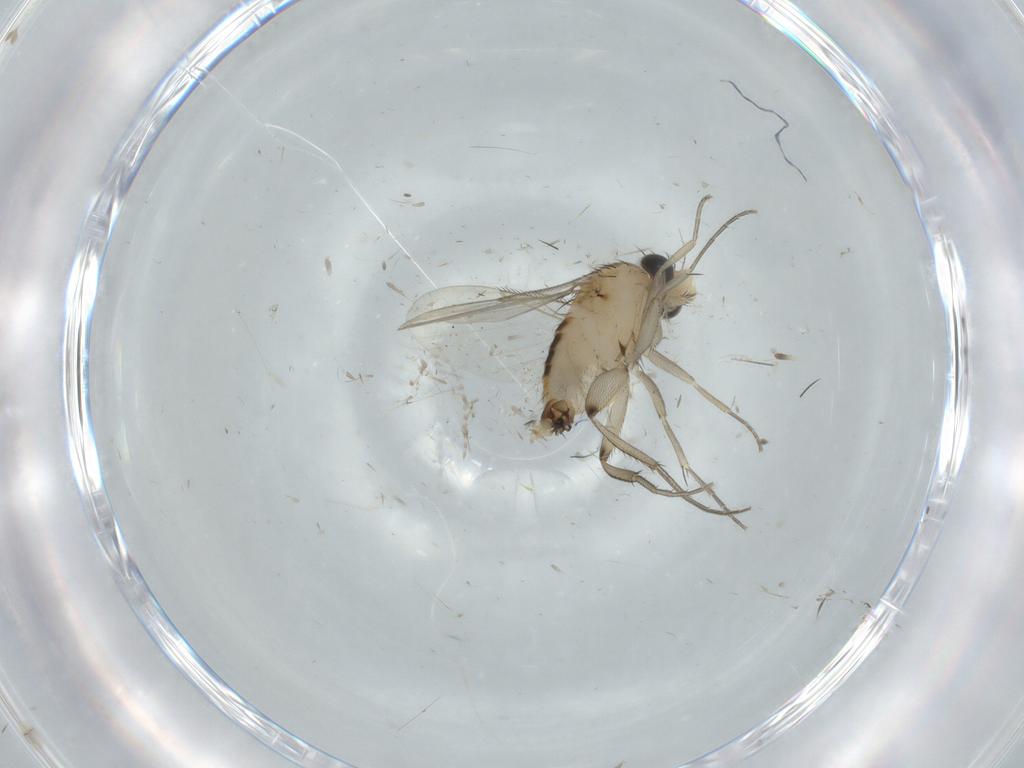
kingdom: Animalia
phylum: Arthropoda
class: Insecta
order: Diptera
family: Phoridae
